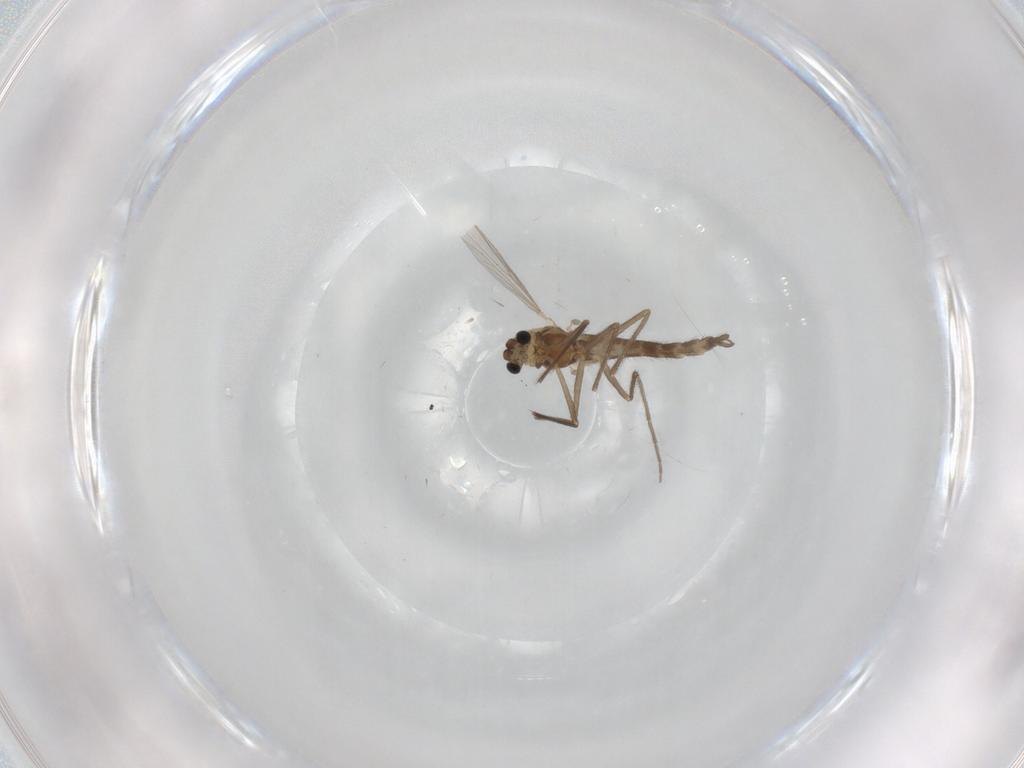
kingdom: Animalia
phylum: Arthropoda
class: Insecta
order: Diptera
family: Chironomidae
